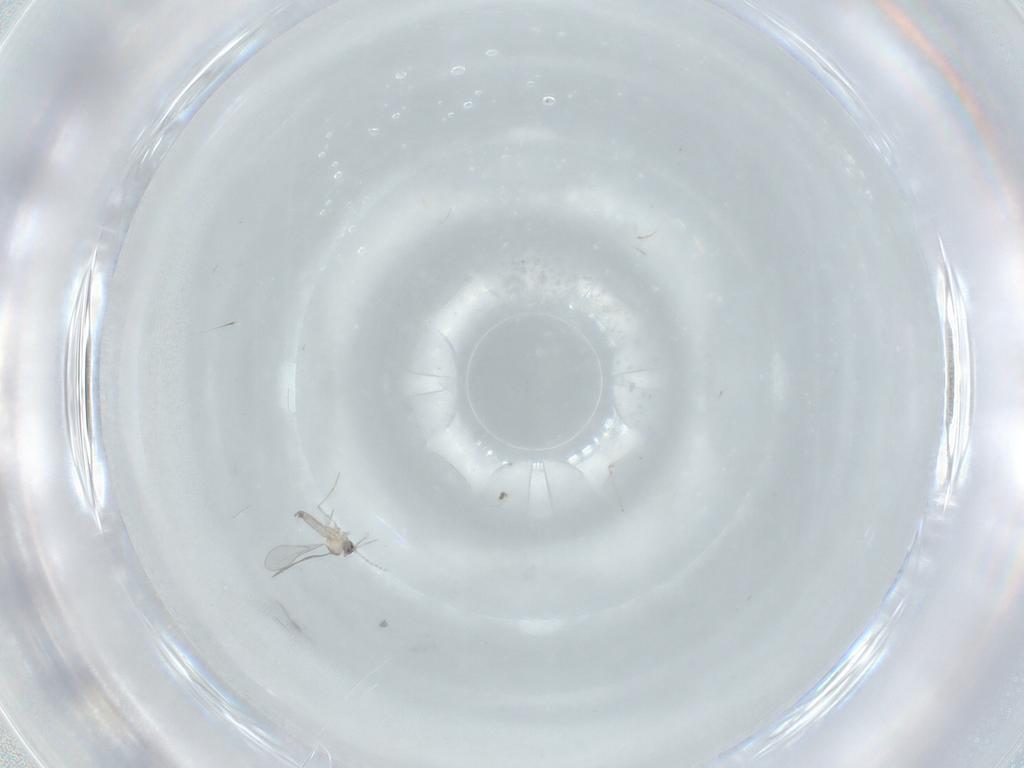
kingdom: Animalia
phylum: Arthropoda
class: Insecta
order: Diptera
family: Cecidomyiidae
